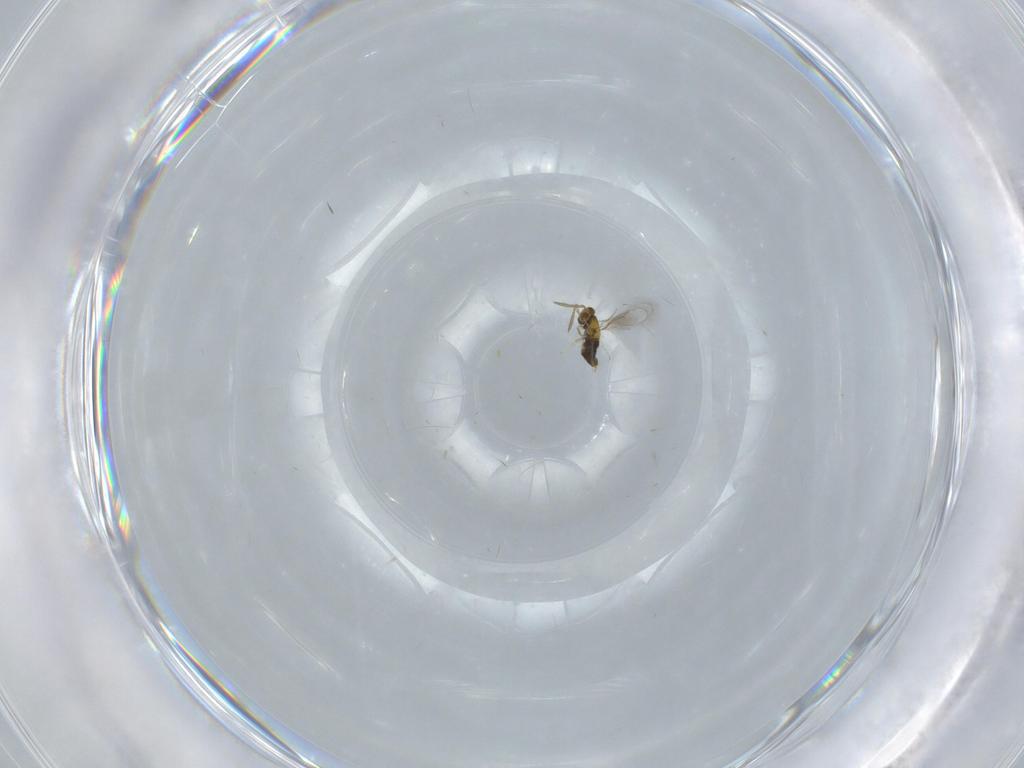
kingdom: Animalia
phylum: Arthropoda
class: Insecta
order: Hymenoptera
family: Aphelinidae
